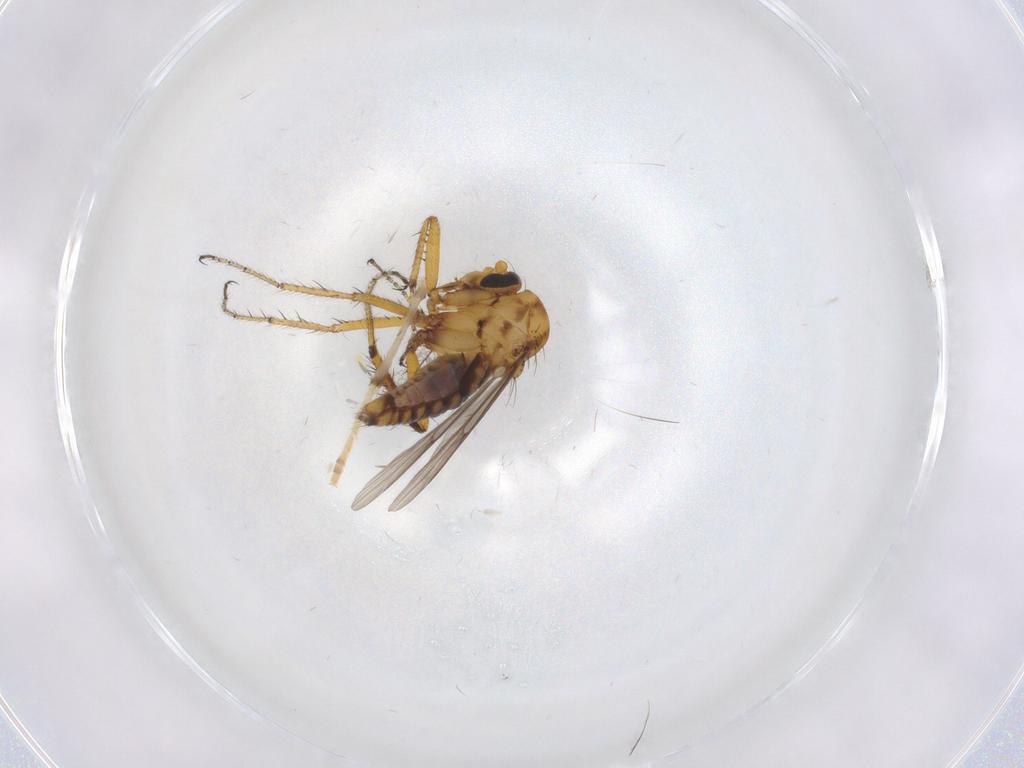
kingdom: Animalia
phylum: Arthropoda
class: Insecta
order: Diptera
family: Ceratopogonidae
